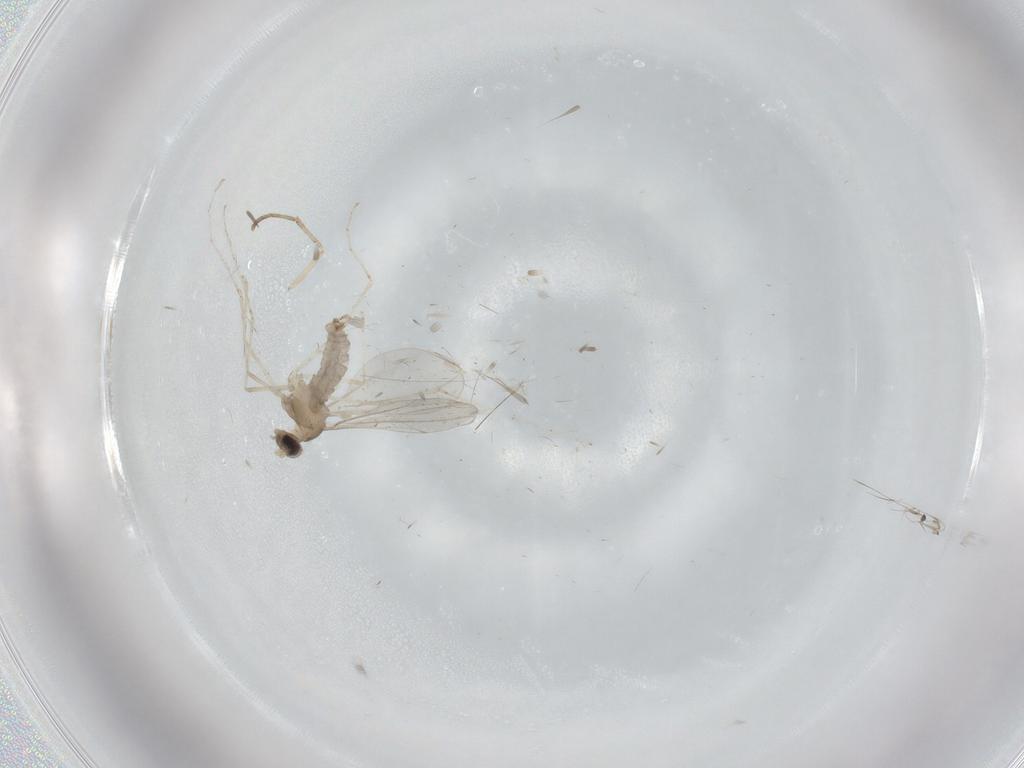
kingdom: Animalia
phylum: Arthropoda
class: Insecta
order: Diptera
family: Cecidomyiidae
